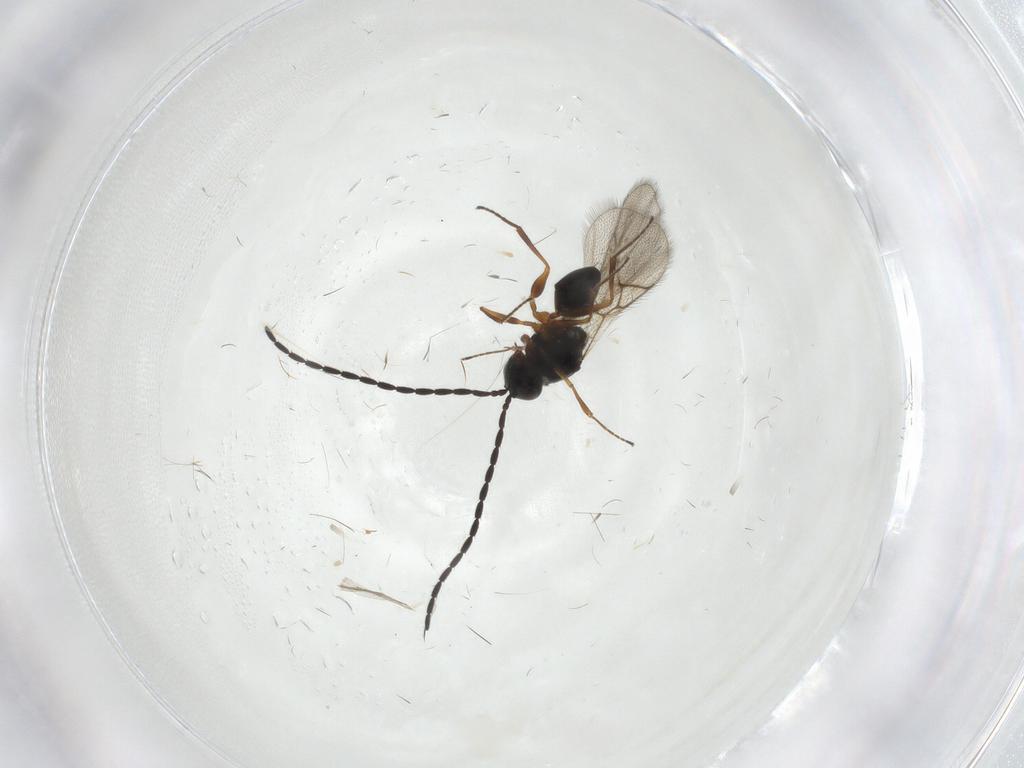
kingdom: Animalia
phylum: Arthropoda
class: Insecta
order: Hymenoptera
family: Figitidae
